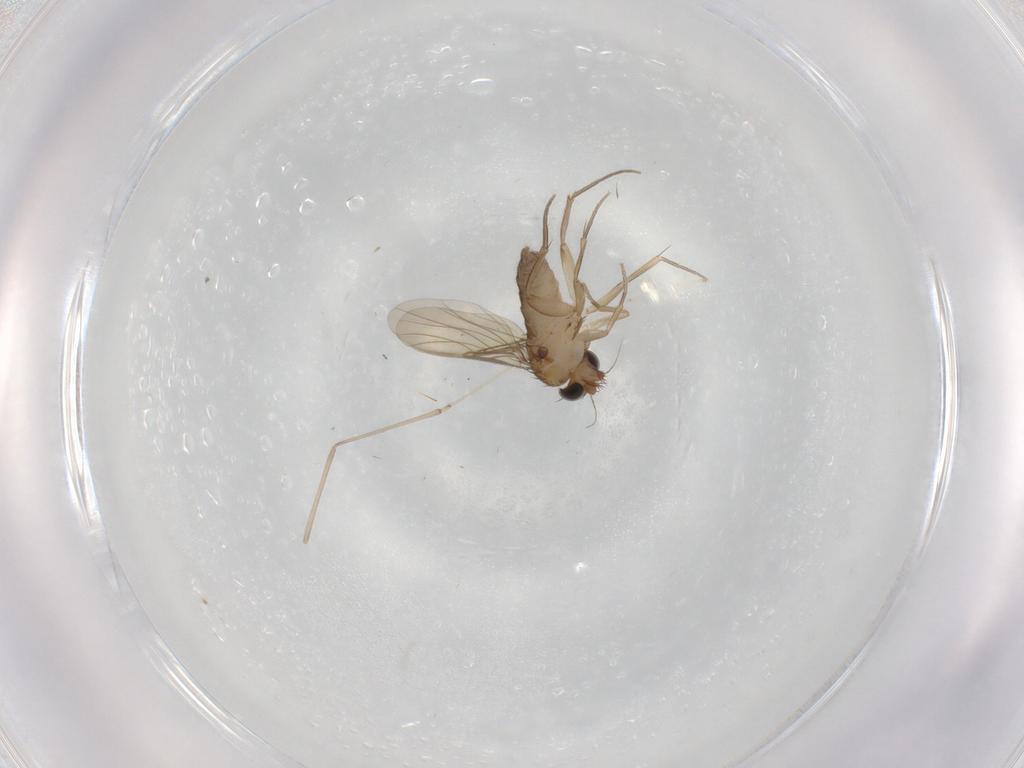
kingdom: Animalia
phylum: Arthropoda
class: Insecta
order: Diptera
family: Phoridae
